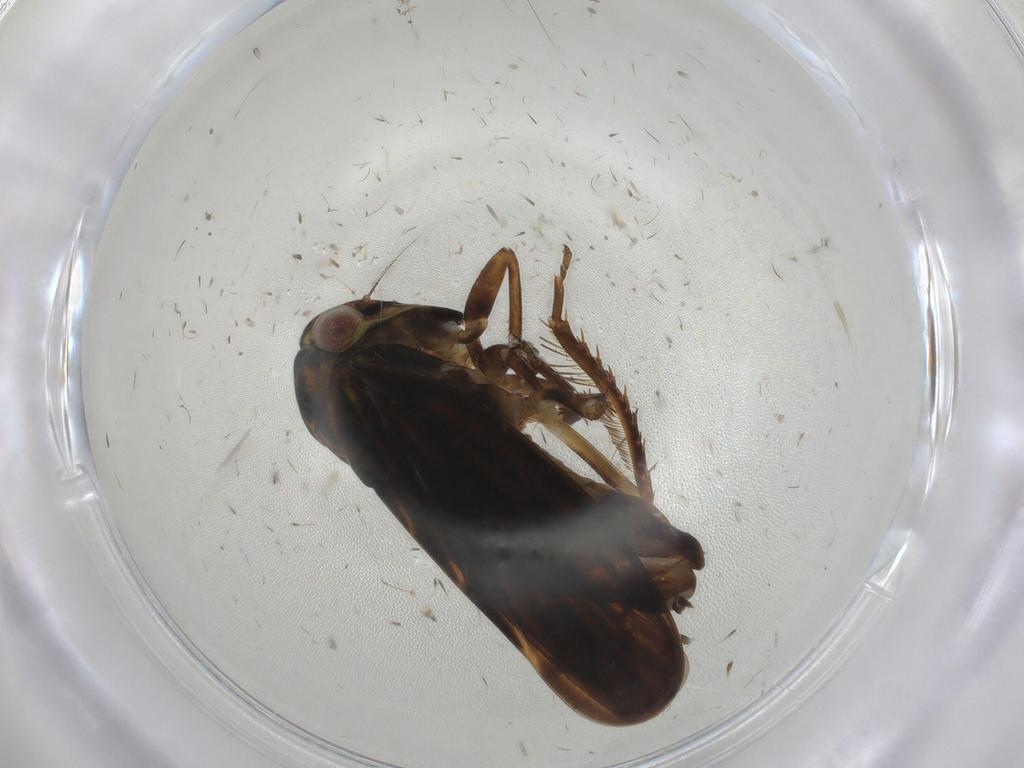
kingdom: Animalia
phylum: Arthropoda
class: Insecta
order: Hemiptera
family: Cicadellidae
